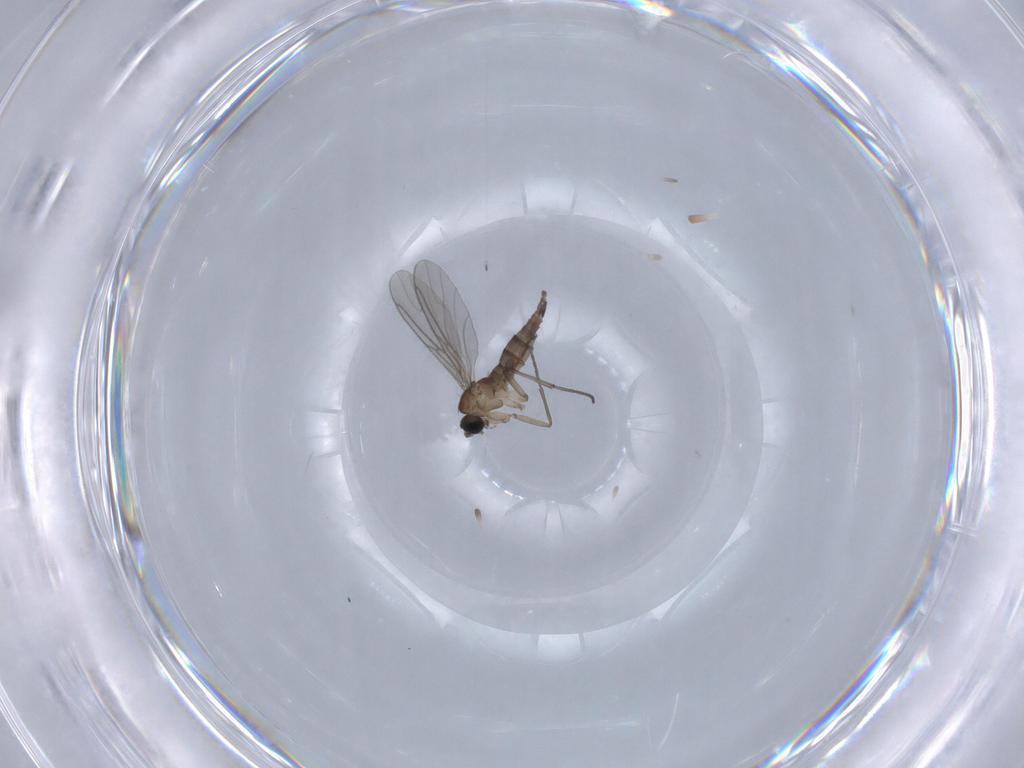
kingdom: Animalia
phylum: Arthropoda
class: Insecta
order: Diptera
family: Sciaridae
